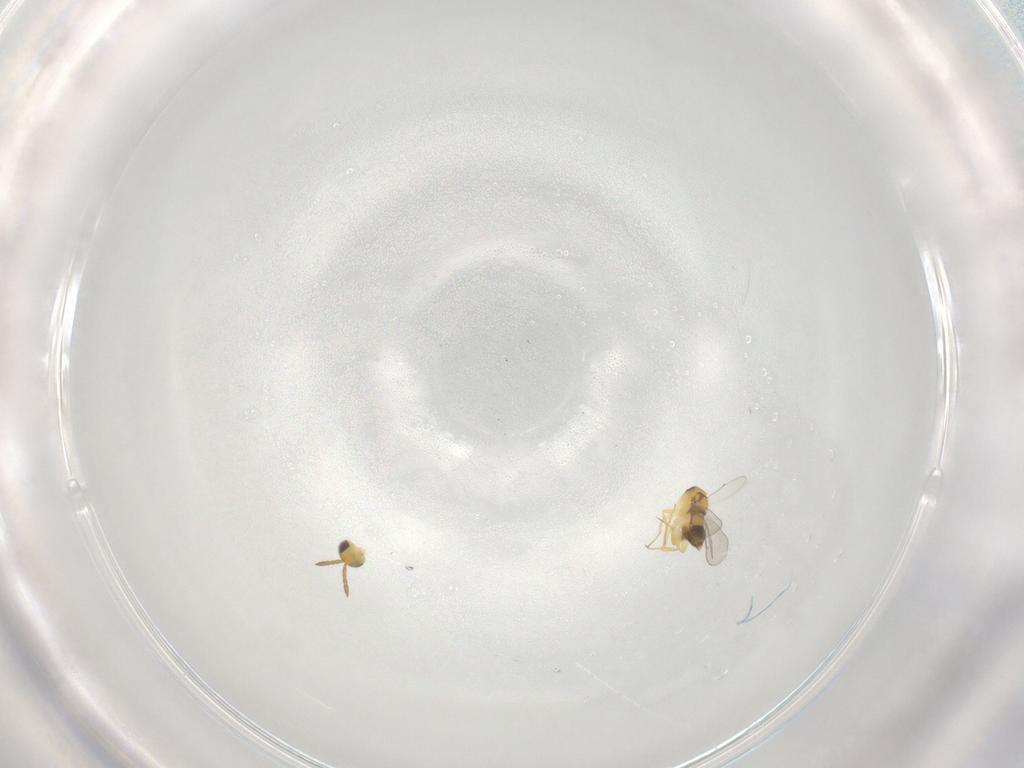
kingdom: Animalia
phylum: Arthropoda
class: Insecta
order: Hymenoptera
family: Aphelinidae
